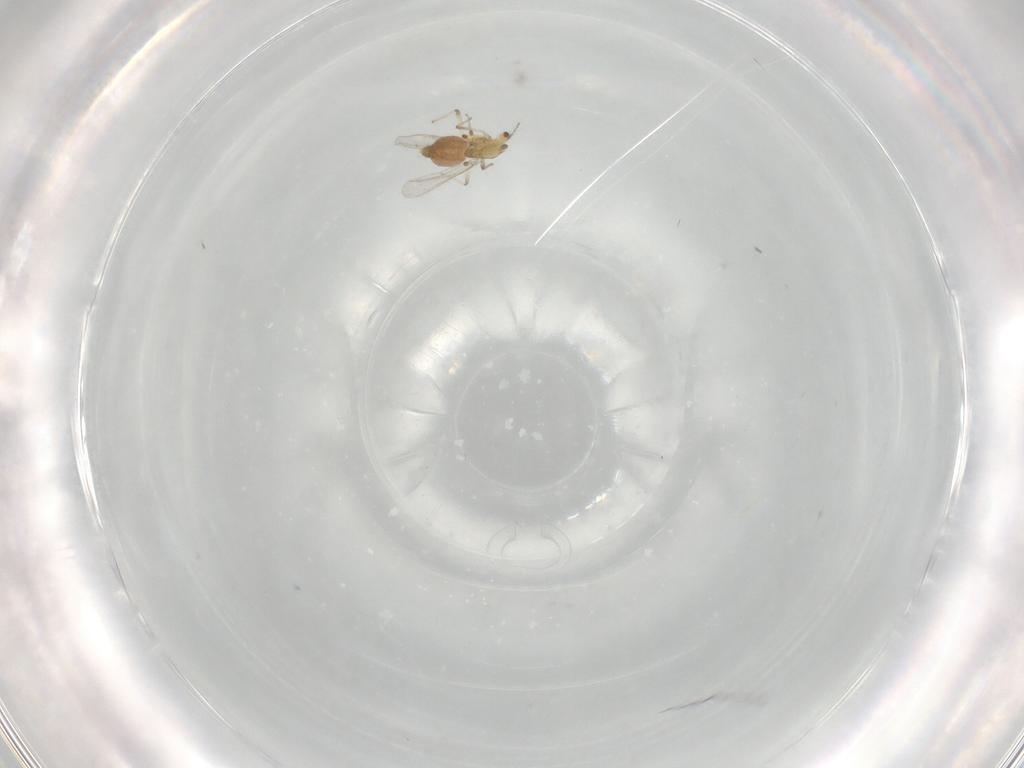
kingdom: Animalia
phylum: Arthropoda
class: Insecta
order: Diptera
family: Chironomidae
